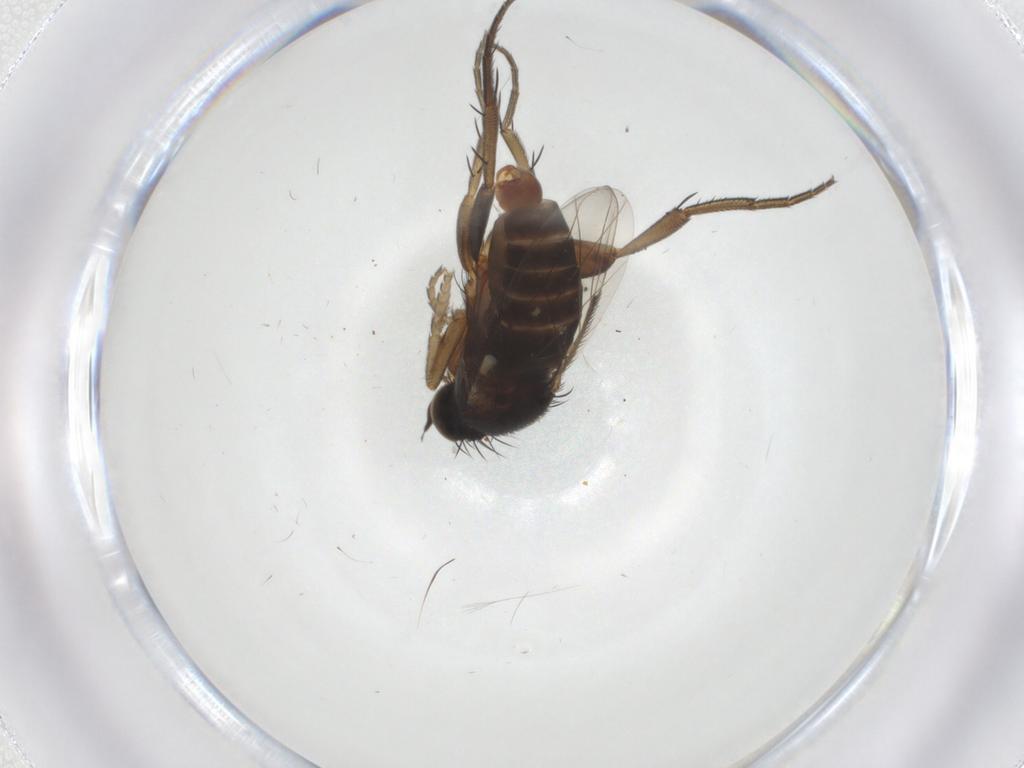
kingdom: Animalia
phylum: Arthropoda
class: Insecta
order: Diptera
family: Phoridae
